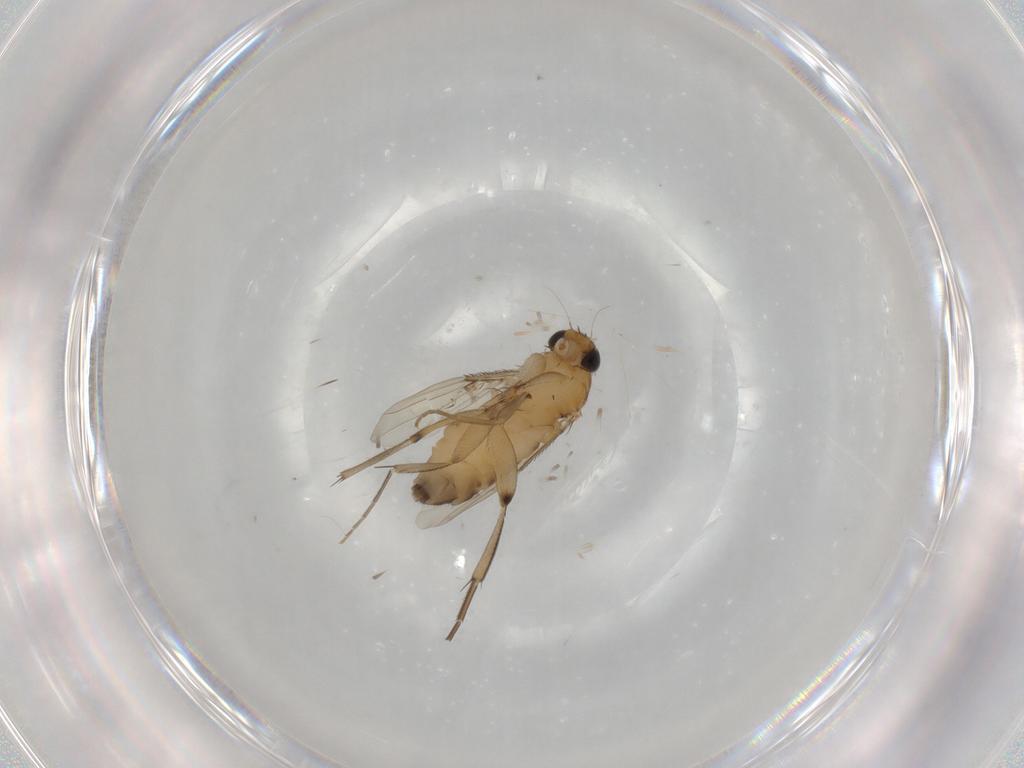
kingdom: Animalia
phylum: Arthropoda
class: Insecta
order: Diptera
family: Phoridae
